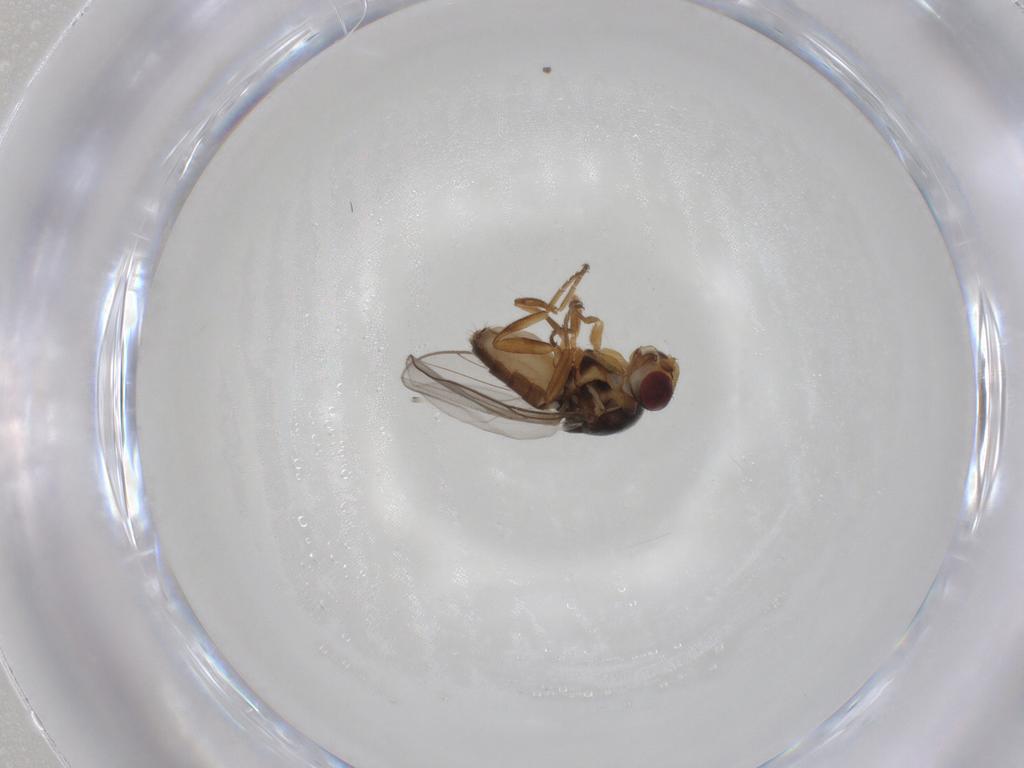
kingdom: Animalia
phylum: Arthropoda
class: Insecta
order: Diptera
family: Chloropidae
